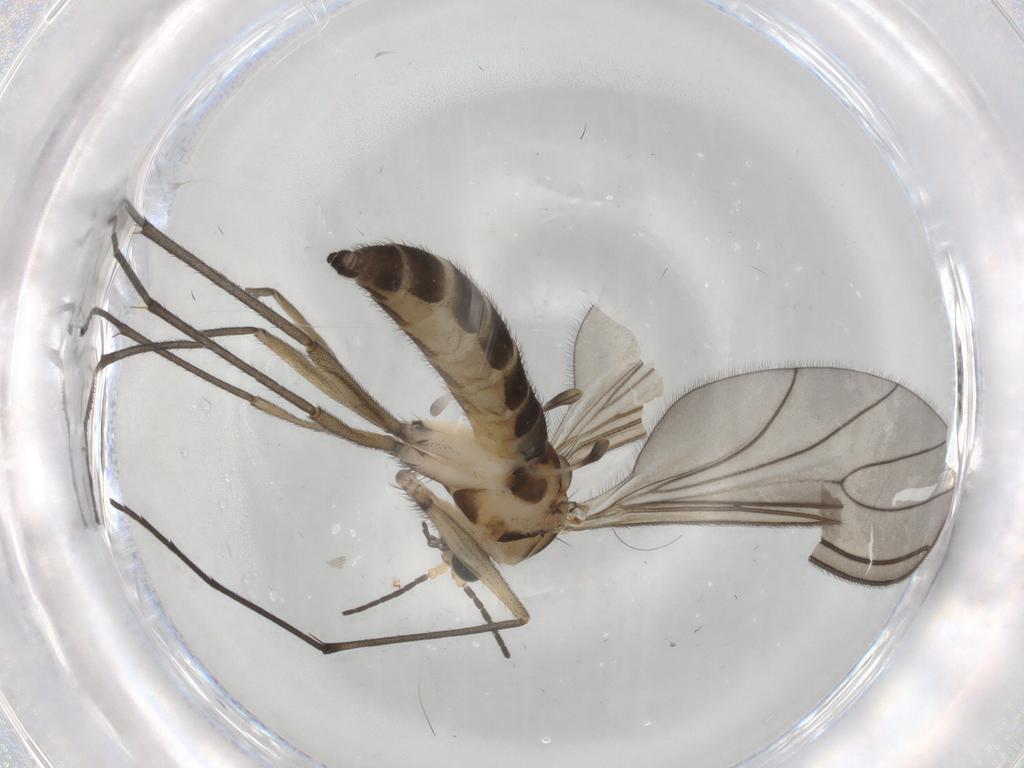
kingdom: Animalia
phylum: Arthropoda
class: Insecta
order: Diptera
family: Sciaridae
